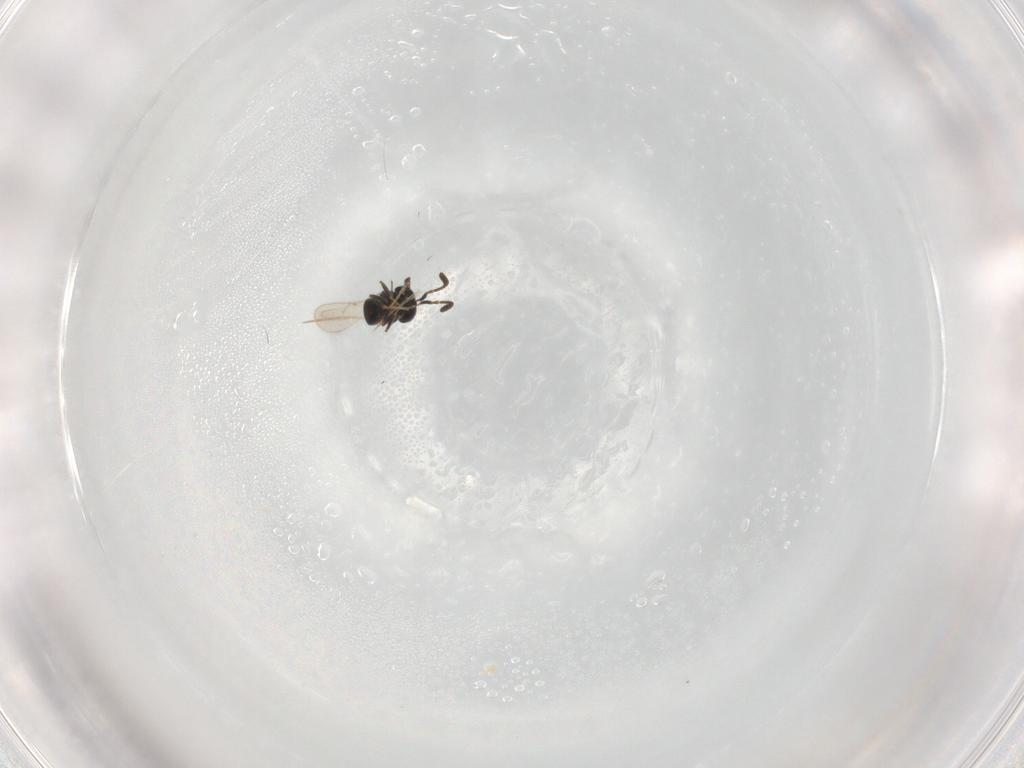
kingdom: Animalia
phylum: Arthropoda
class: Insecta
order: Hymenoptera
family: Scelionidae
